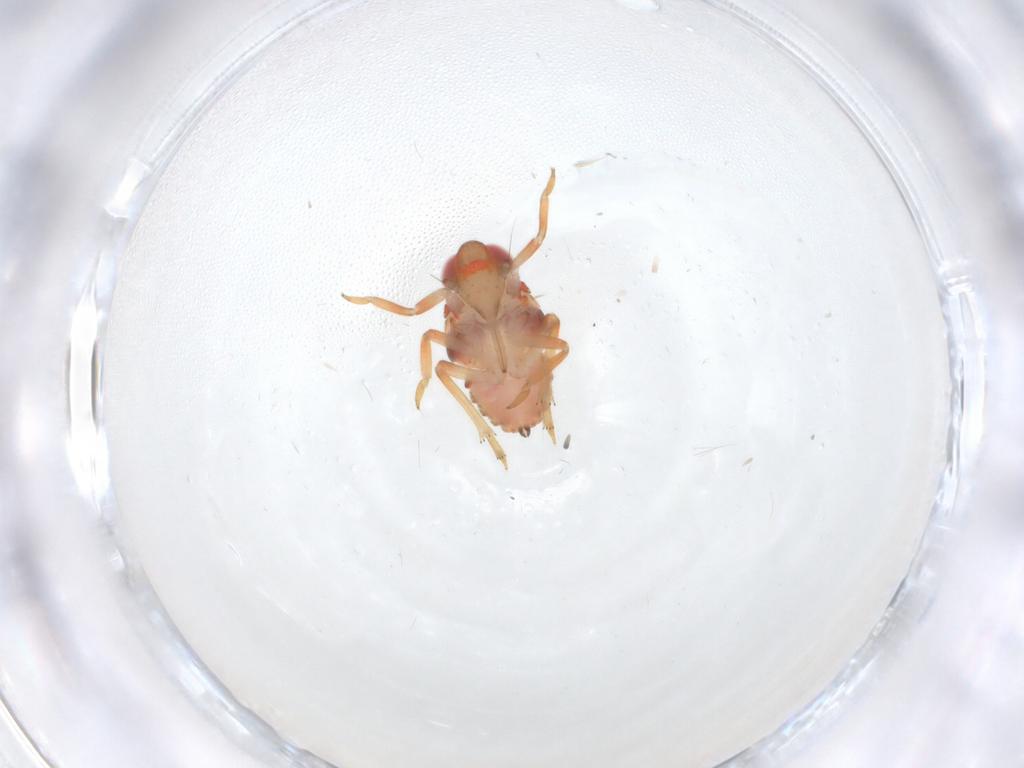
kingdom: Animalia
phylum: Arthropoda
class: Insecta
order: Hemiptera
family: Issidae
